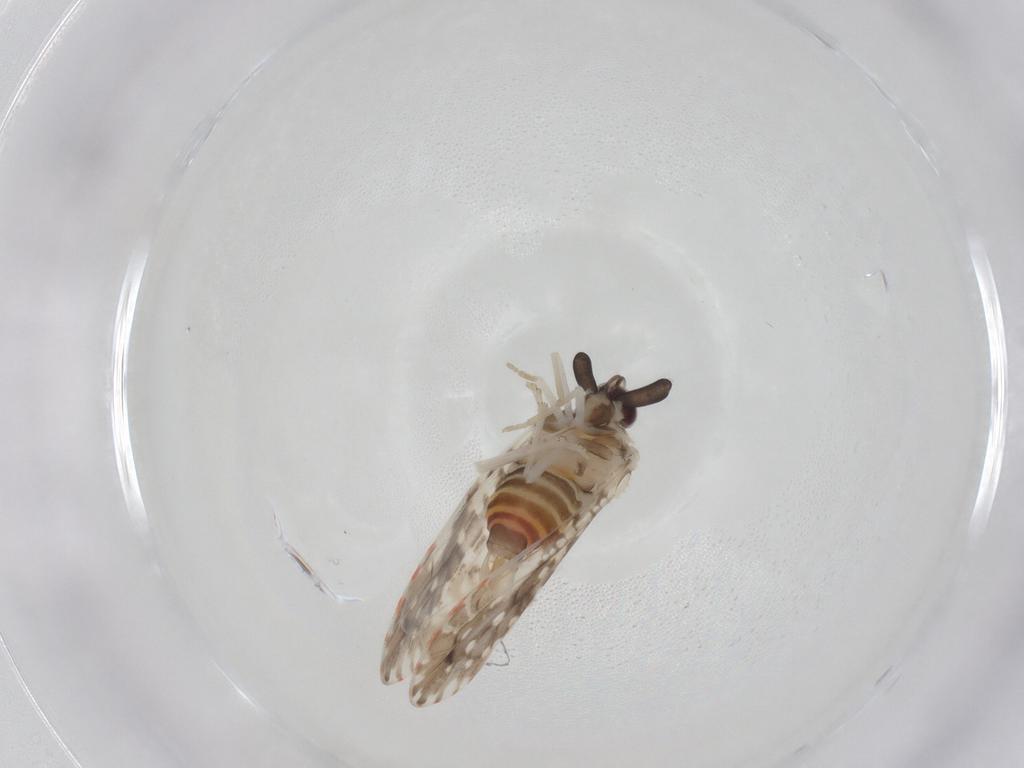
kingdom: Animalia
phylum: Arthropoda
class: Insecta
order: Hemiptera
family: Derbidae
